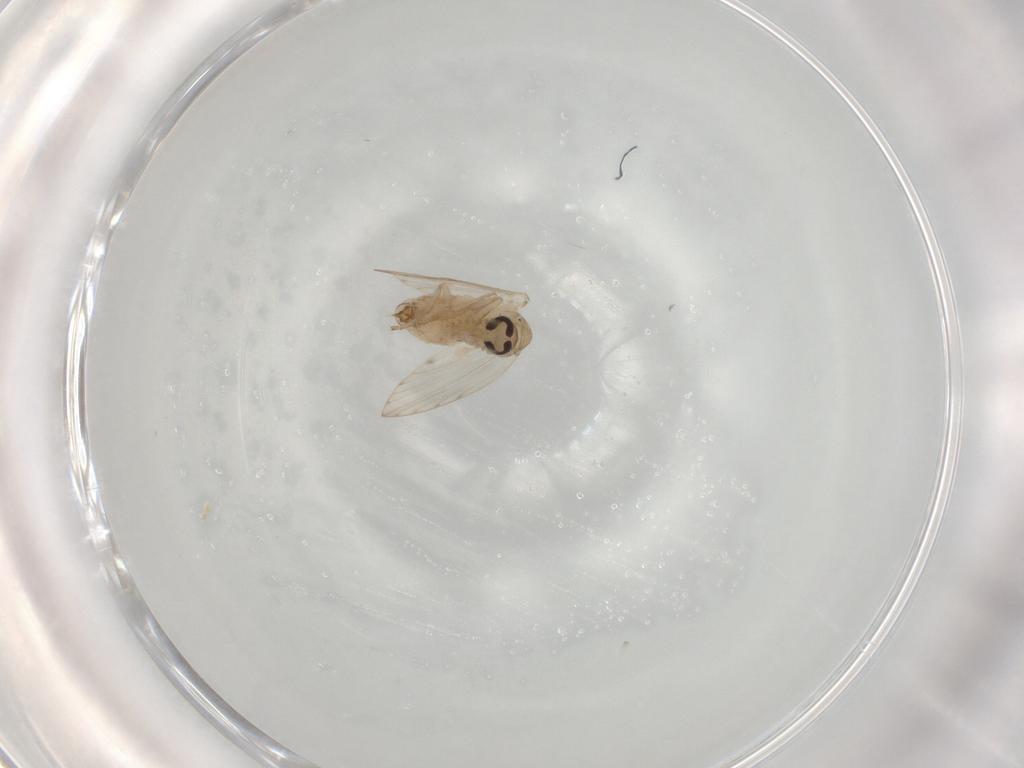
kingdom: Animalia
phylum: Arthropoda
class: Insecta
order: Diptera
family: Psychodidae
